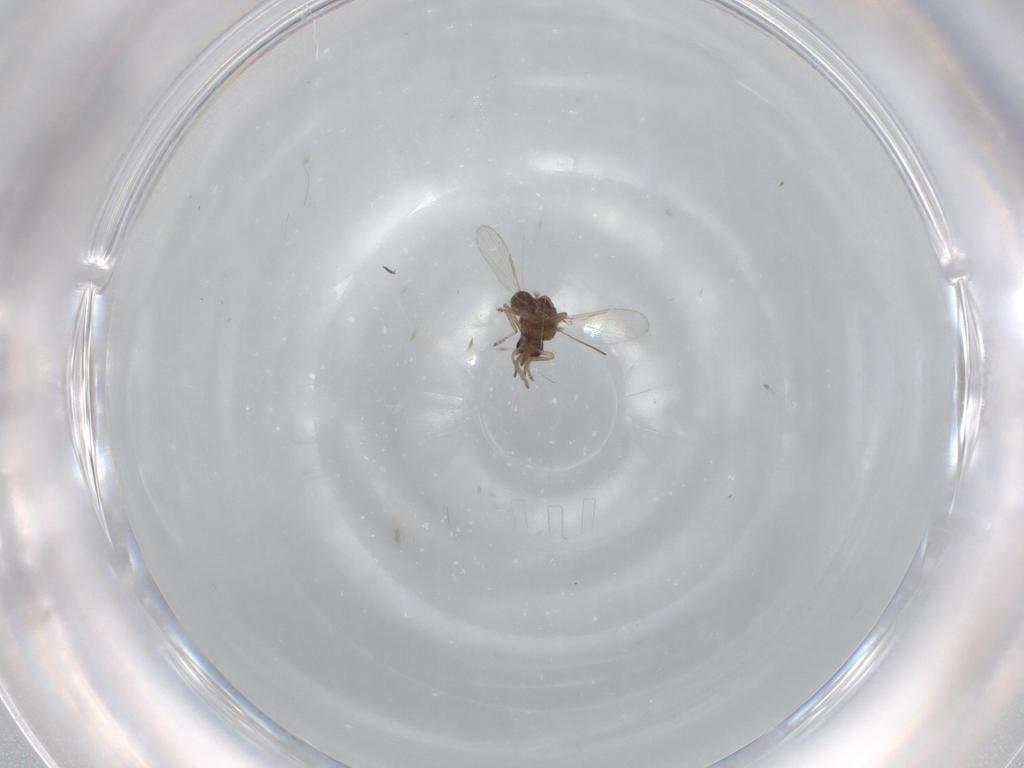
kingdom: Animalia
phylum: Arthropoda
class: Insecta
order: Diptera
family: Ceratopogonidae
